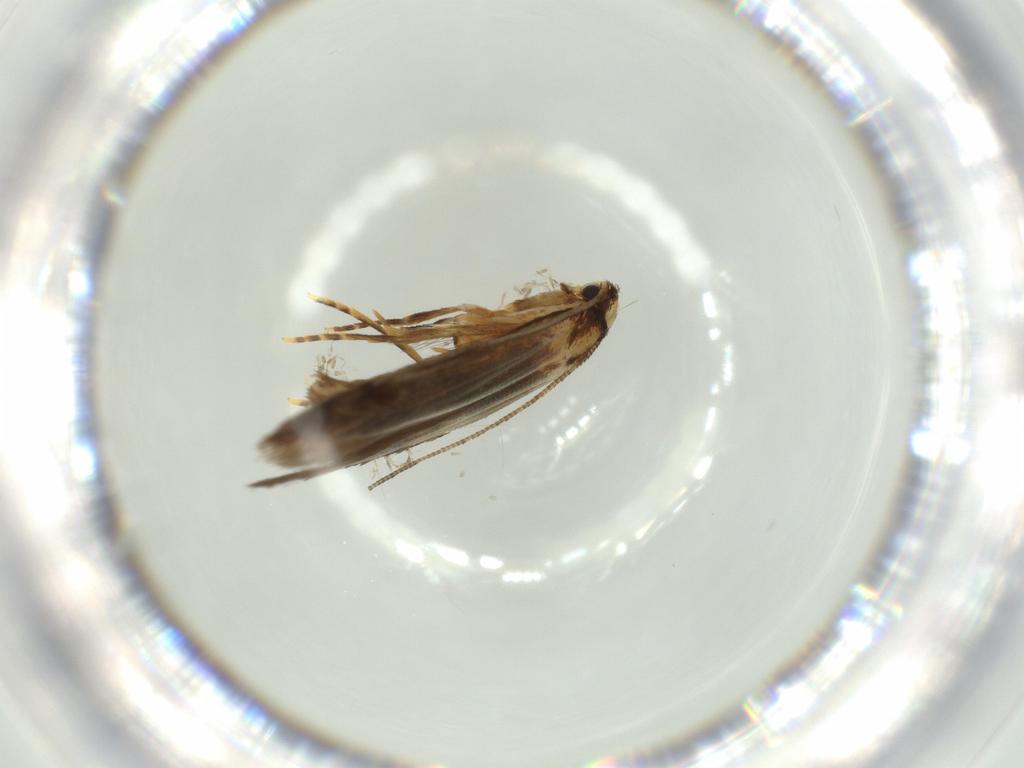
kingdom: Animalia
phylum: Arthropoda
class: Insecta
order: Lepidoptera
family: Tineidae
